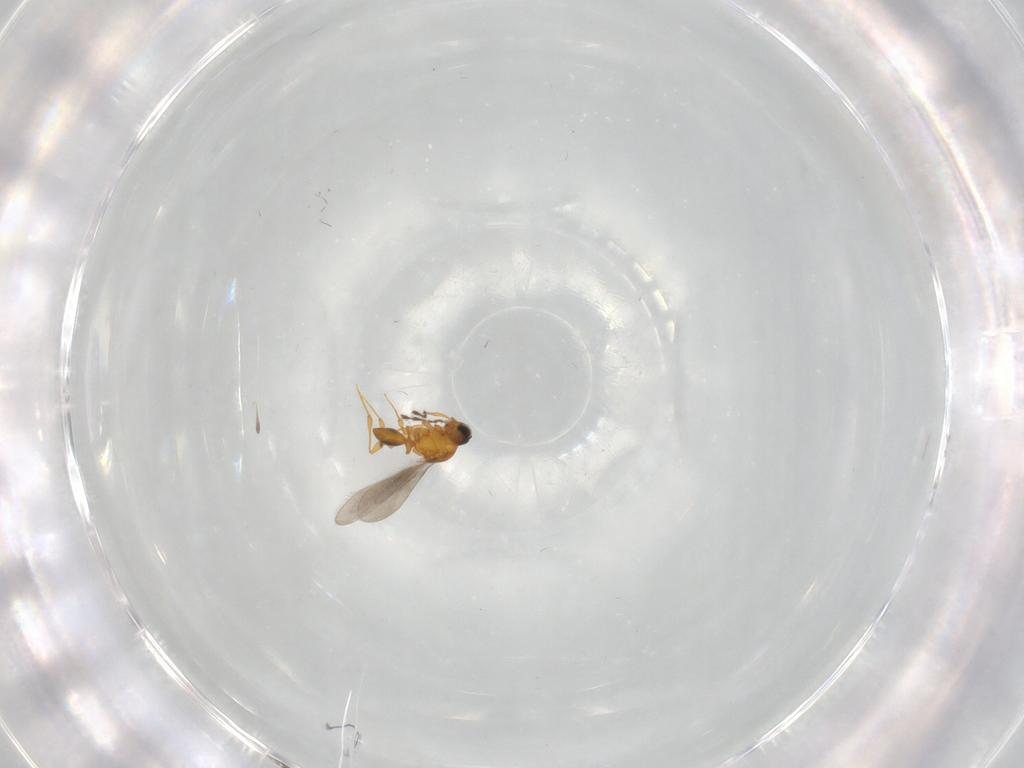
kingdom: Animalia
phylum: Arthropoda
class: Insecta
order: Hymenoptera
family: Platygastridae
